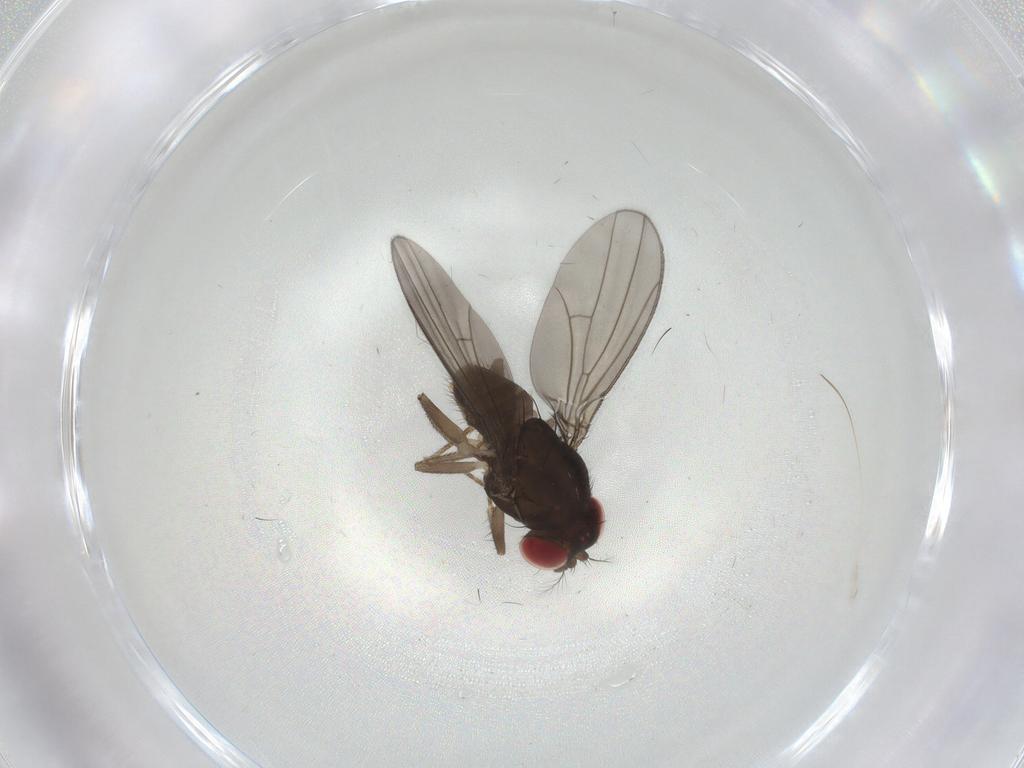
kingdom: Animalia
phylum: Arthropoda
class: Insecta
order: Diptera
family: Drosophilidae
